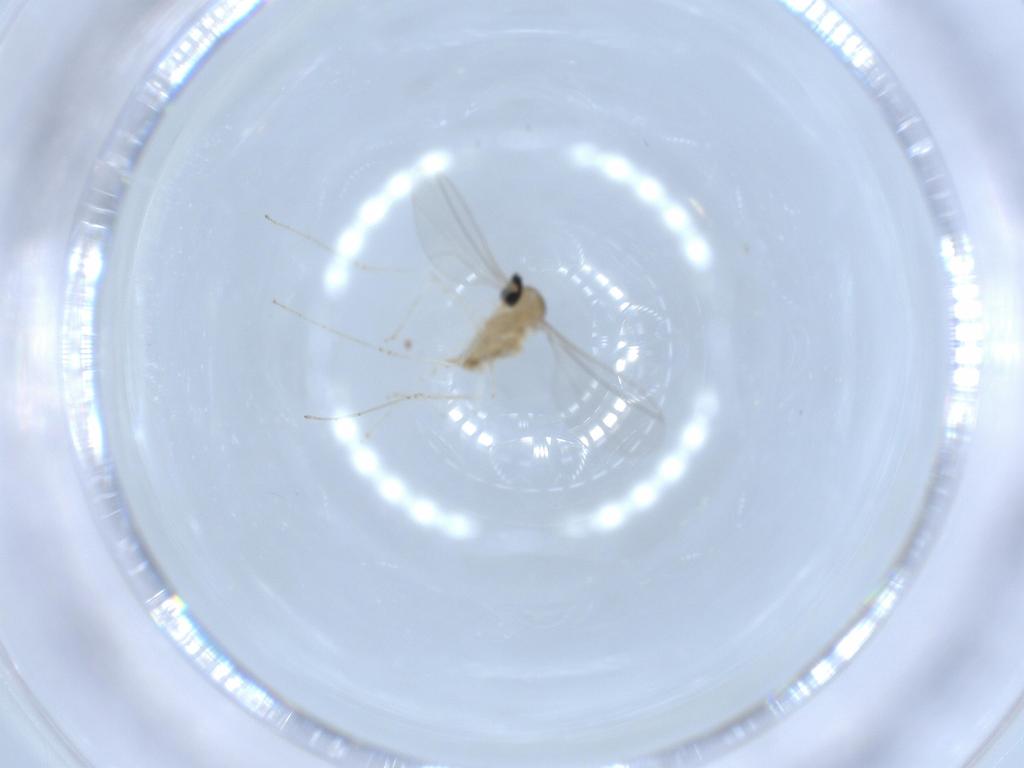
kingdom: Animalia
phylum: Arthropoda
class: Insecta
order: Diptera
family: Cecidomyiidae
